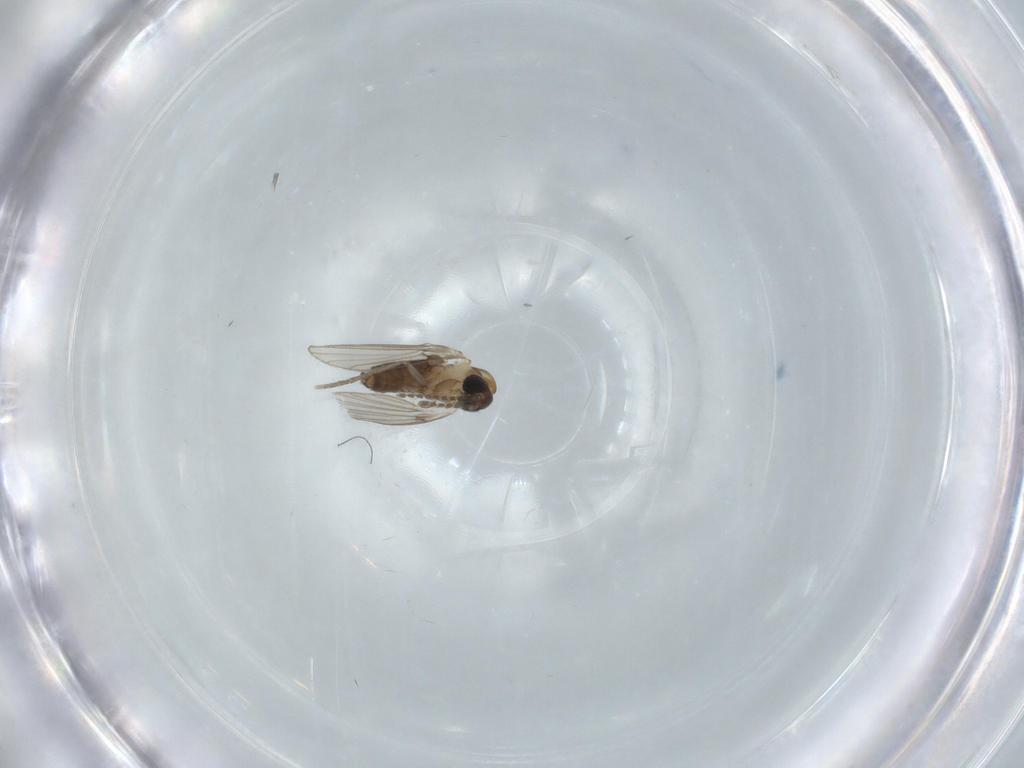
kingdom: Animalia
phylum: Arthropoda
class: Insecta
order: Diptera
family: Psychodidae
